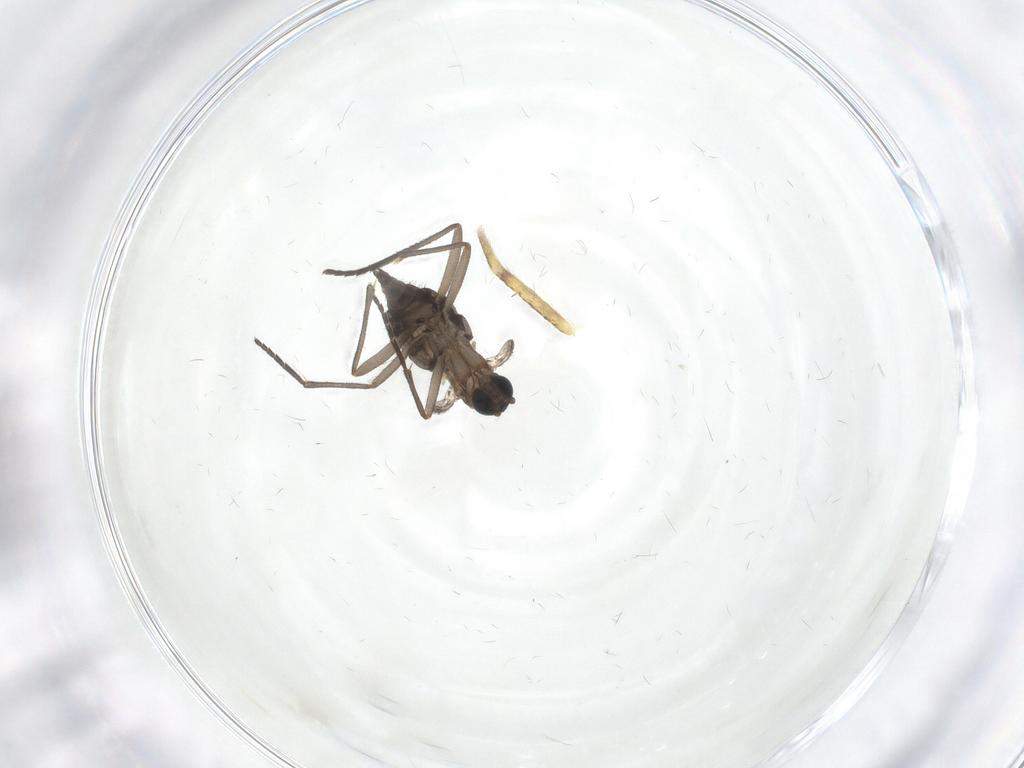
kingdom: Animalia
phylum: Arthropoda
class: Insecta
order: Diptera
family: Sciaridae
